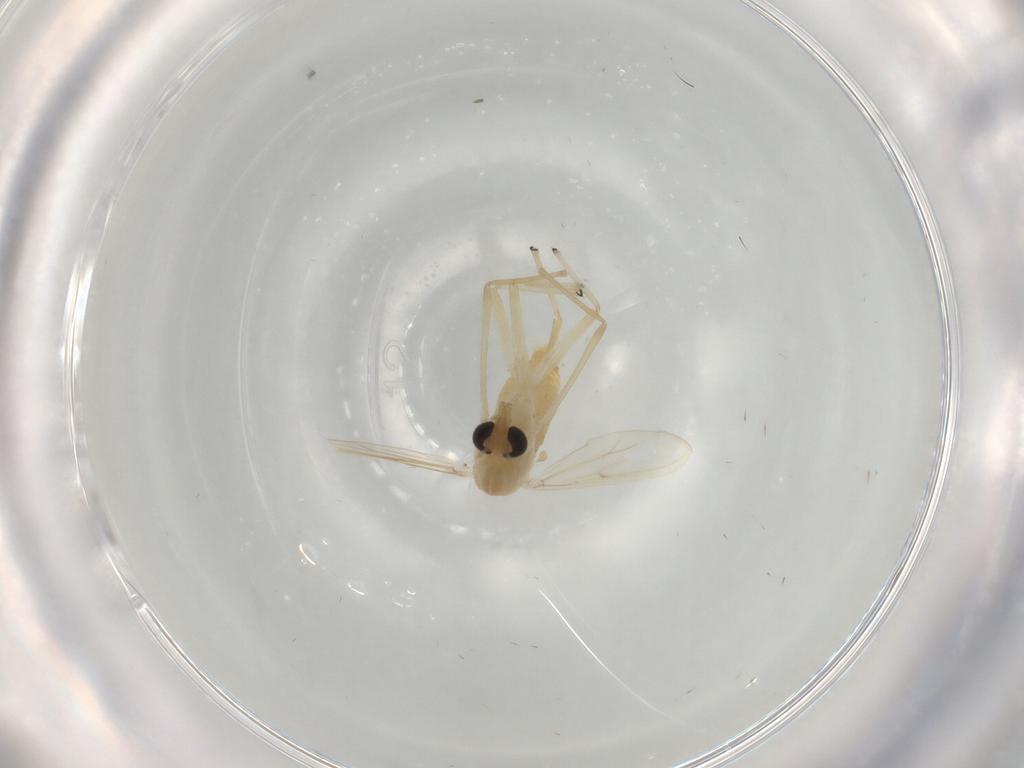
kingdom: Animalia
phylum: Arthropoda
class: Insecta
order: Diptera
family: Chironomidae
